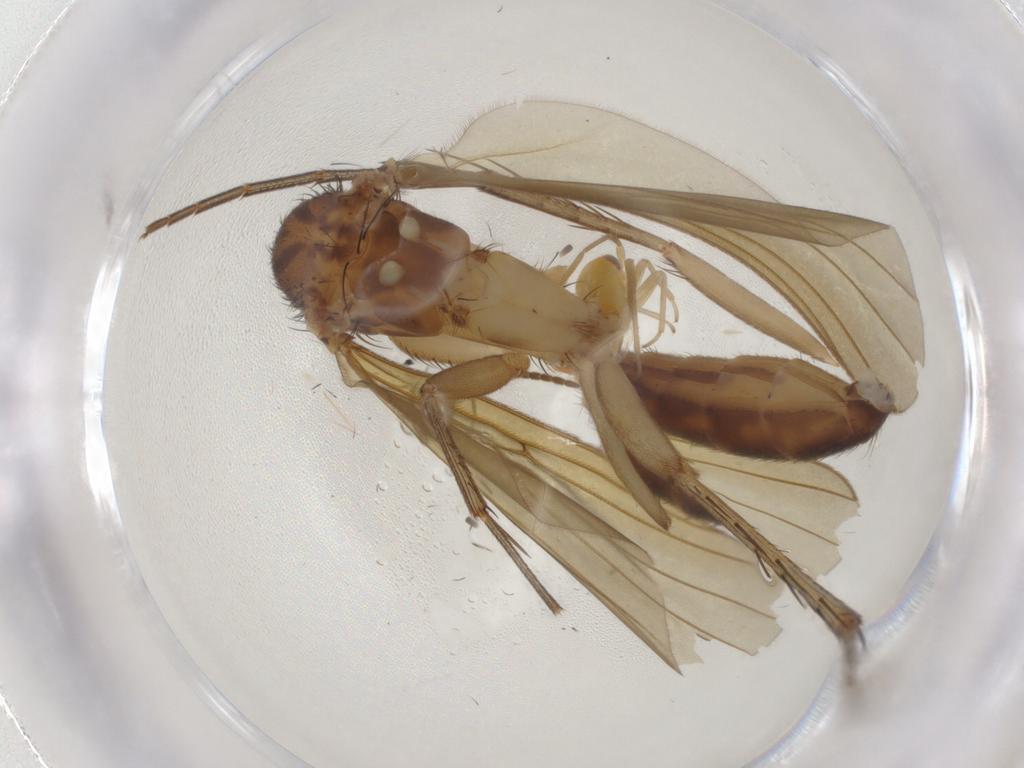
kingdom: Animalia
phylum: Arthropoda
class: Insecta
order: Diptera
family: Mycetophilidae
